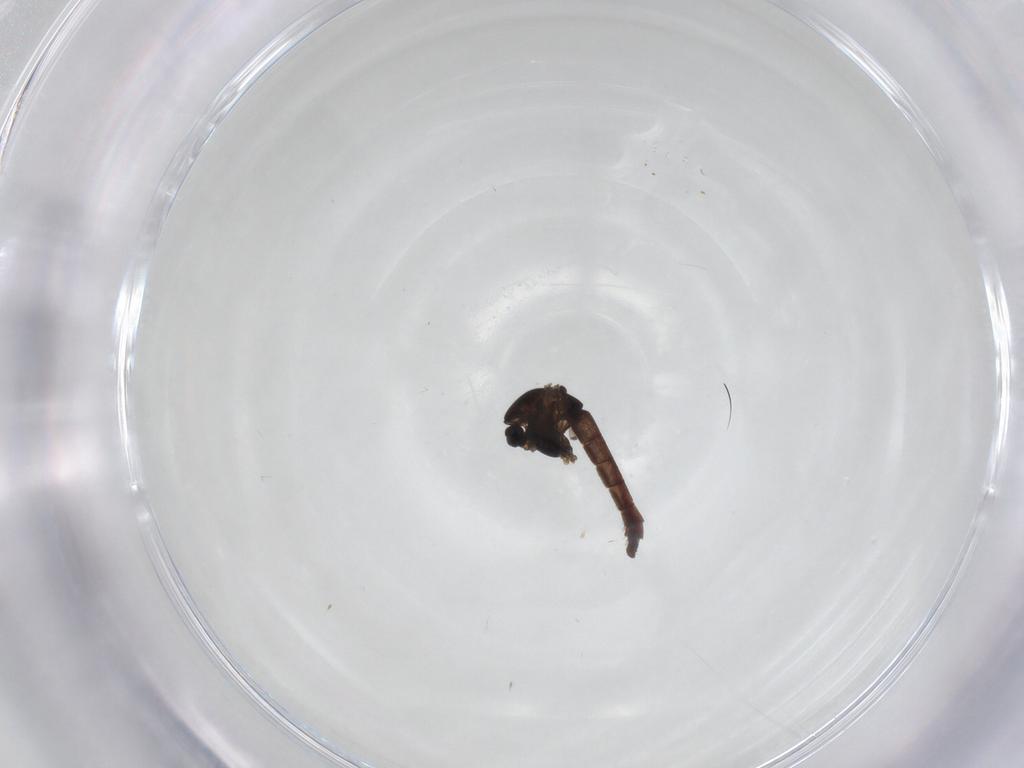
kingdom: Animalia
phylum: Arthropoda
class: Insecta
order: Diptera
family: Chironomidae
